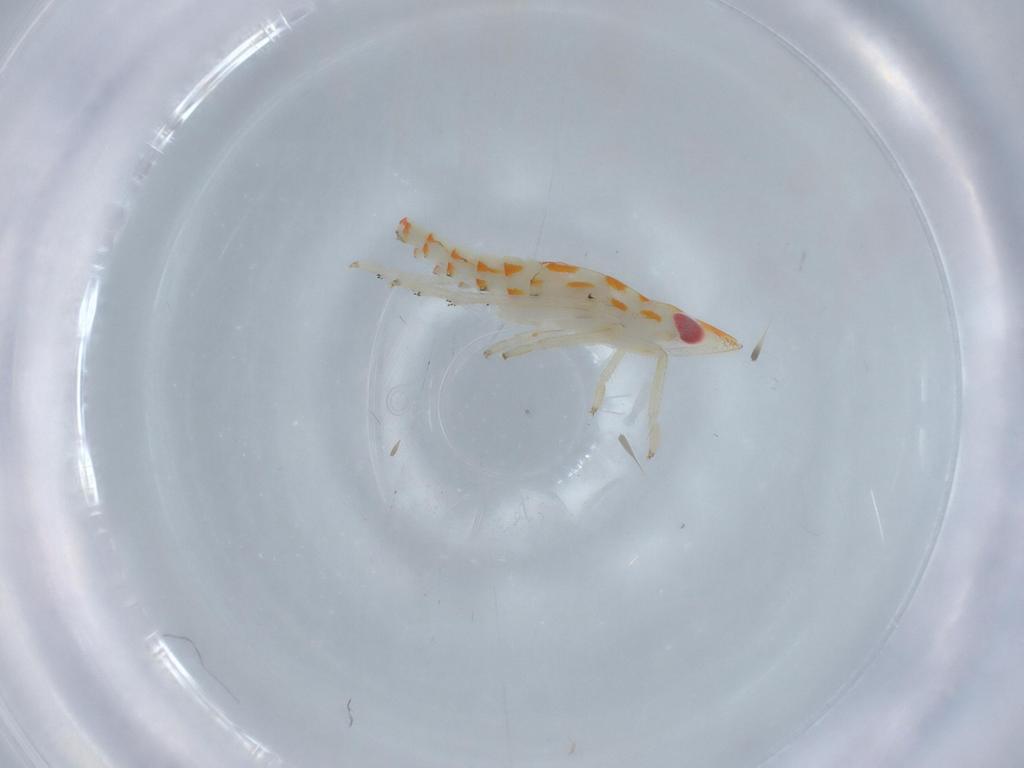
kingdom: Animalia
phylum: Arthropoda
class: Insecta
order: Hemiptera
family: Tropiduchidae
